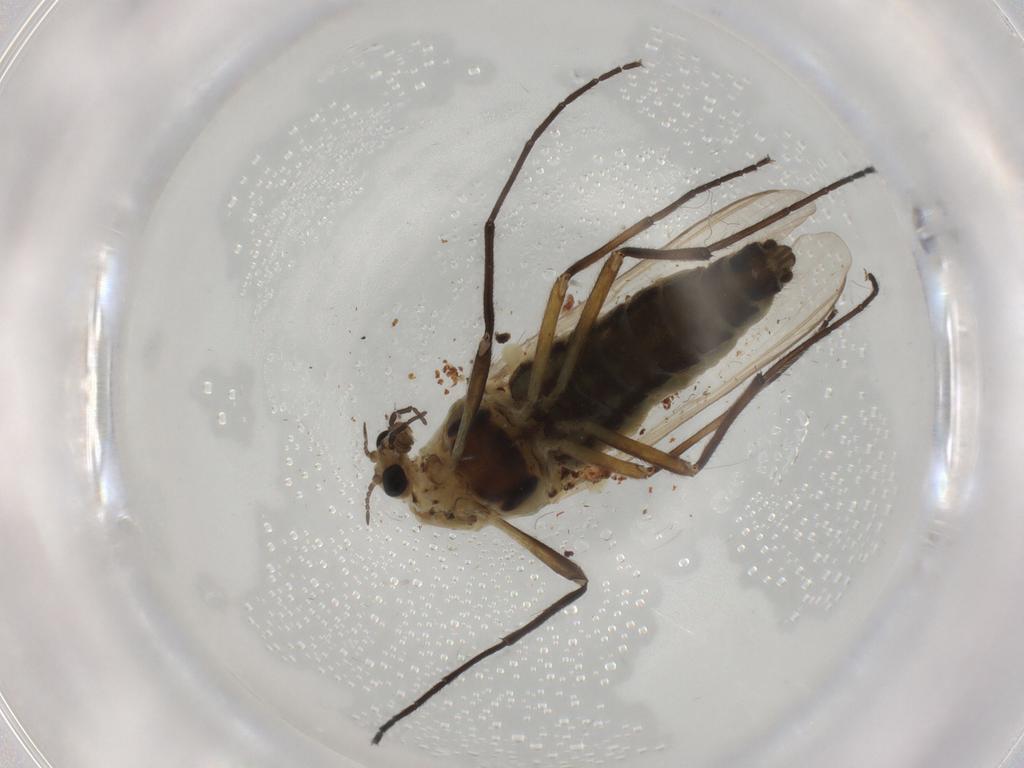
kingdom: Animalia
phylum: Arthropoda
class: Insecta
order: Diptera
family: Ceratopogonidae
